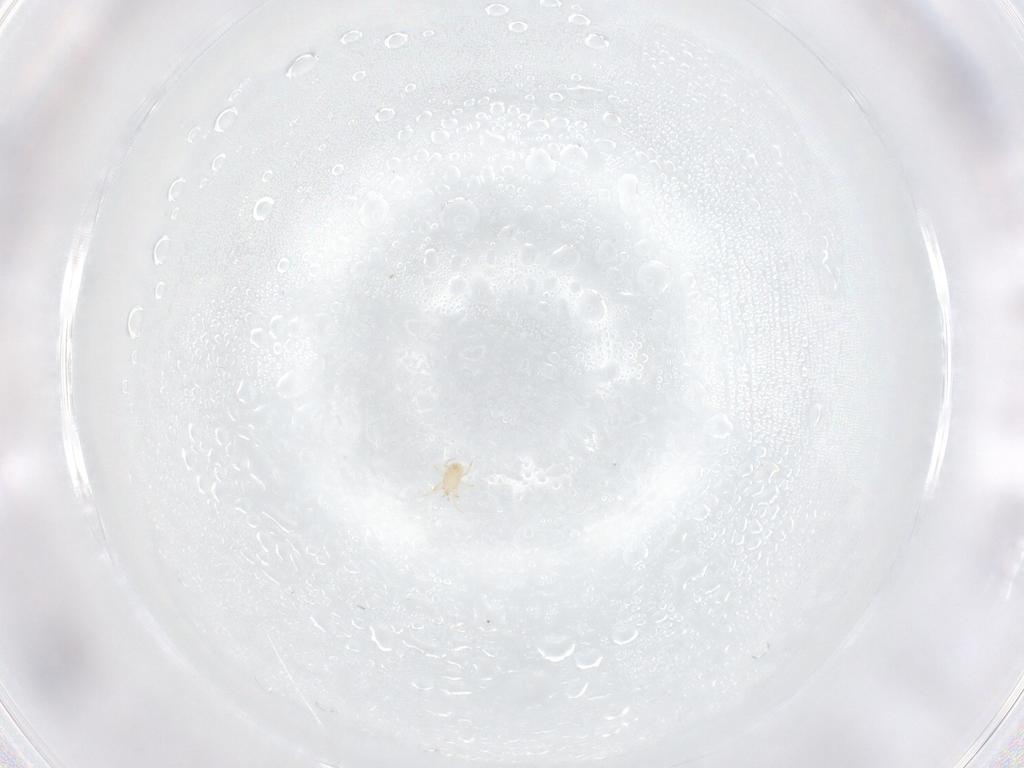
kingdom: Animalia
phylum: Arthropoda
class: Arachnida
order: Mesostigmata
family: Phytoseiidae
